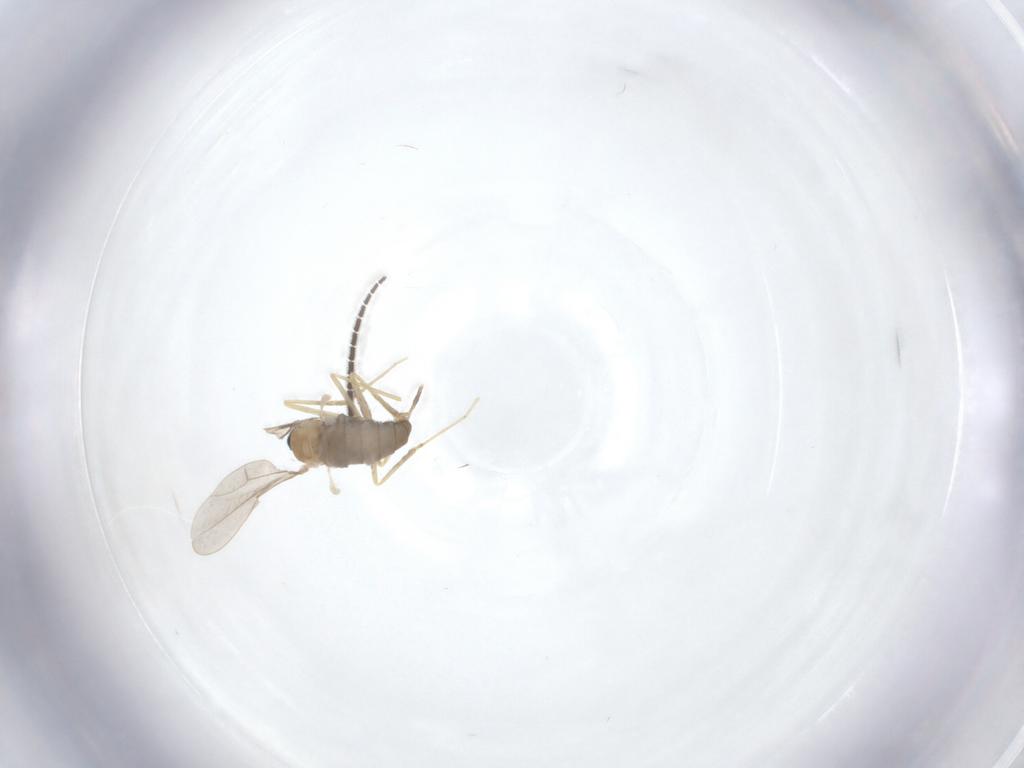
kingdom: Animalia
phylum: Arthropoda
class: Insecta
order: Diptera
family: Cecidomyiidae
